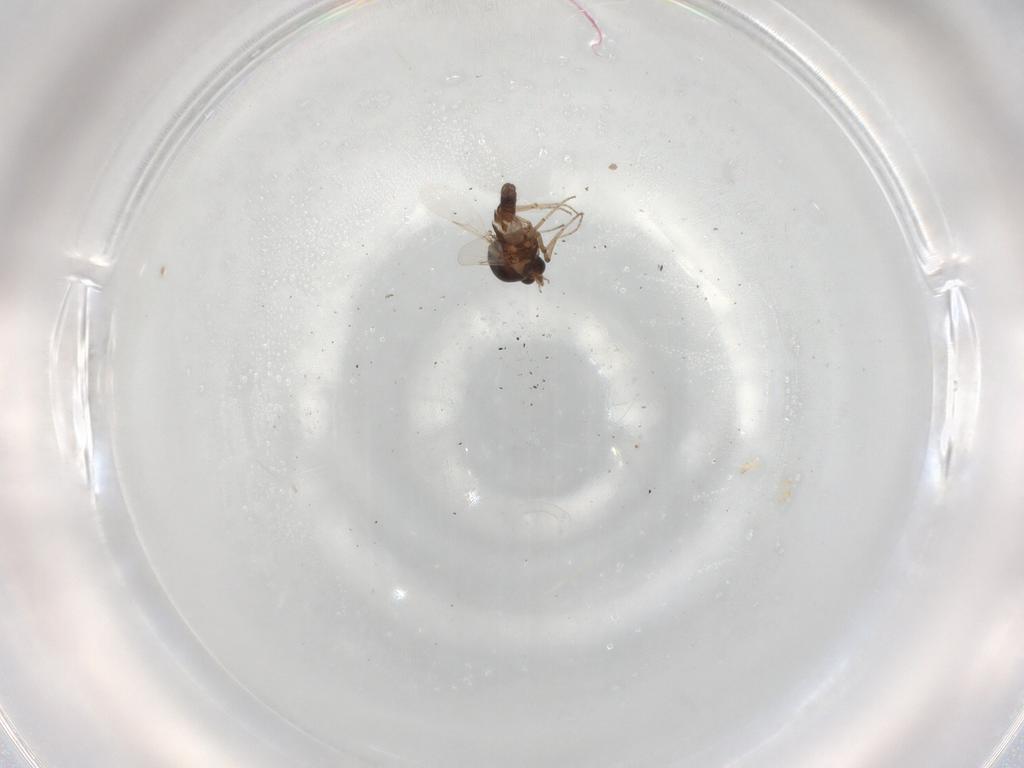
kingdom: Animalia
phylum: Arthropoda
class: Insecta
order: Diptera
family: Ceratopogonidae
